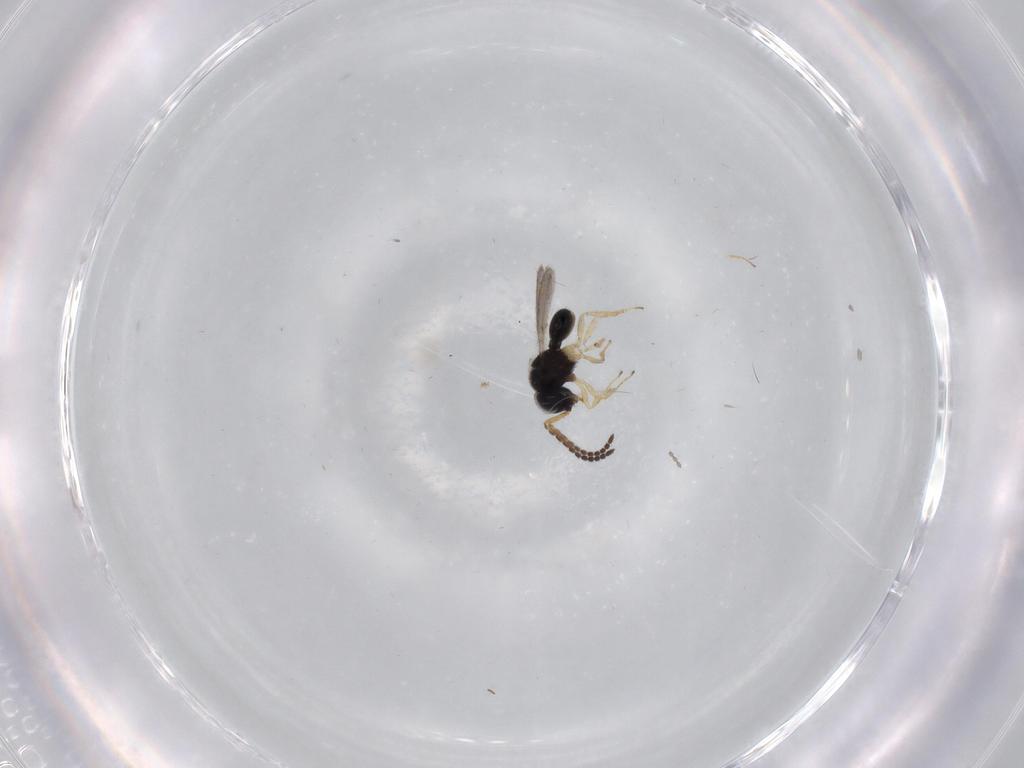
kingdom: Animalia
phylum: Arthropoda
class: Insecta
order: Hymenoptera
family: Scelionidae
